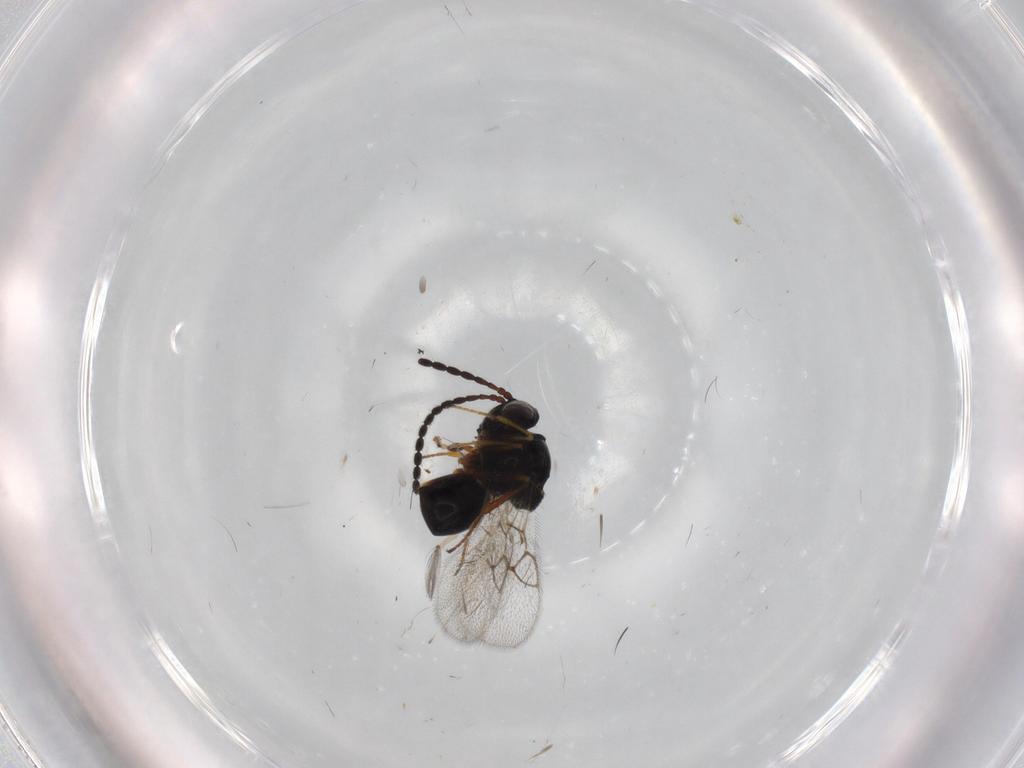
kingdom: Animalia
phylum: Arthropoda
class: Insecta
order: Hymenoptera
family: Figitidae
